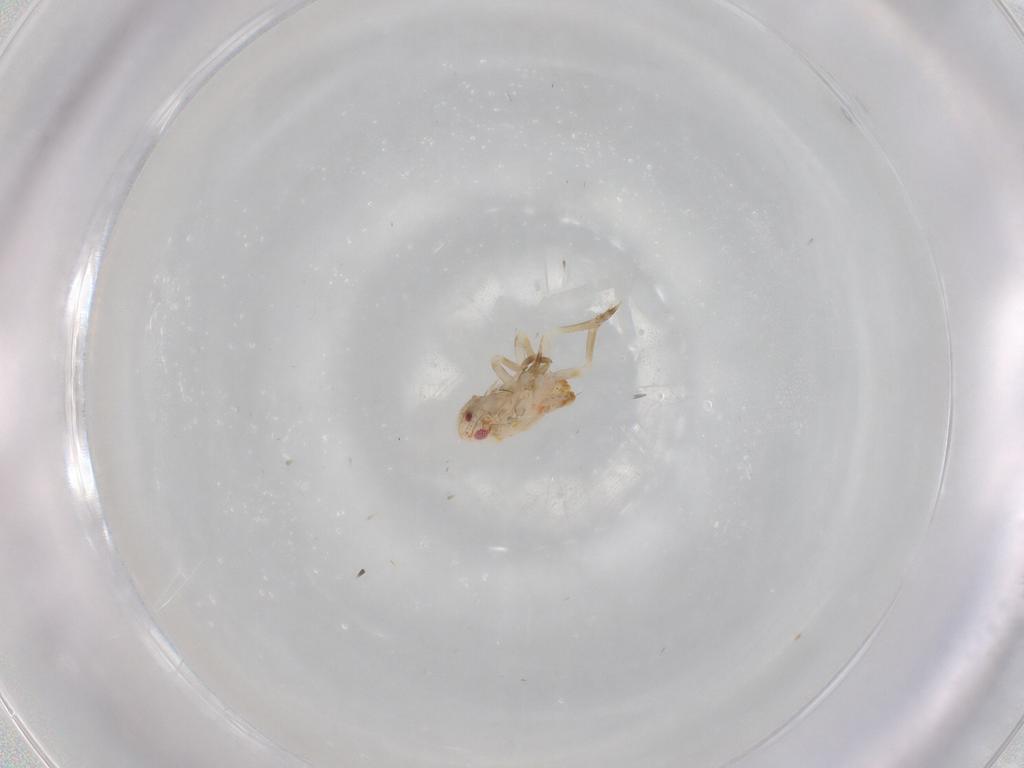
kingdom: Animalia
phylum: Arthropoda
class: Insecta
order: Hemiptera
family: Flatidae
